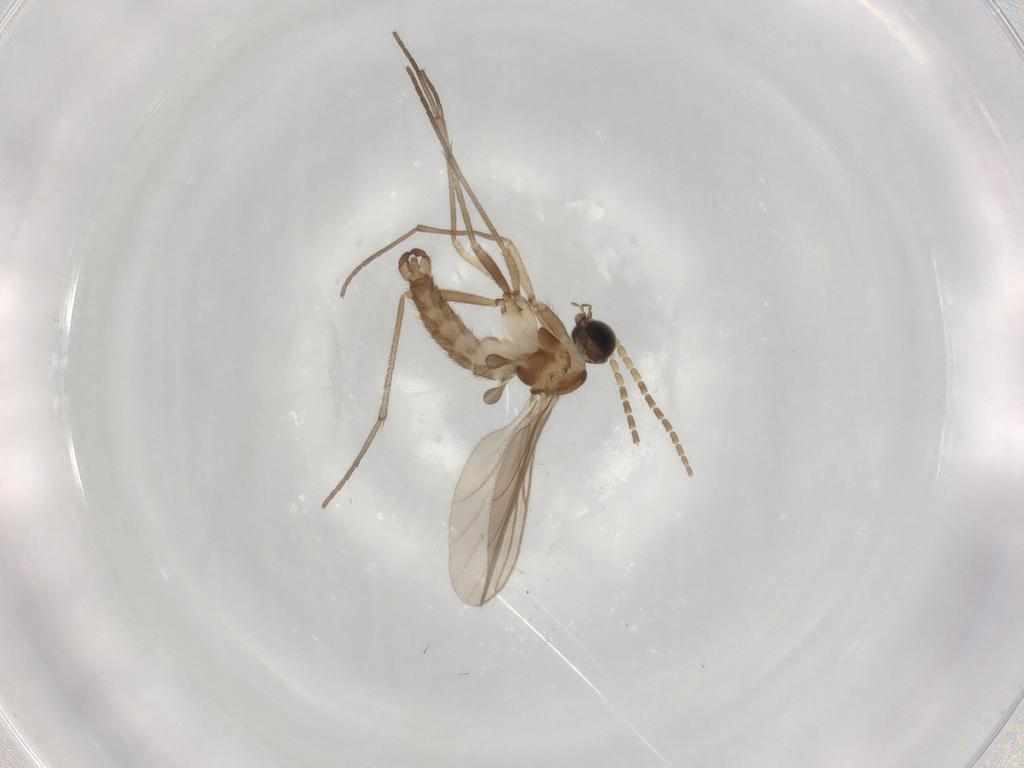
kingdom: Animalia
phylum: Arthropoda
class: Insecta
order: Diptera
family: Sciaridae
